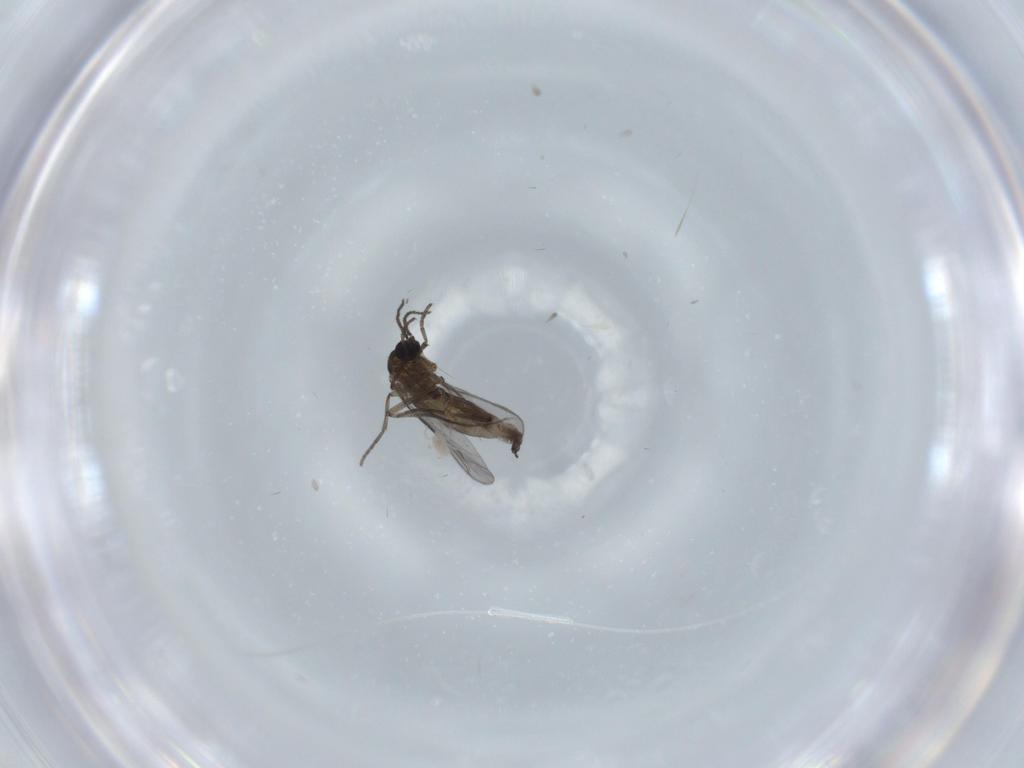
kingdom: Animalia
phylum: Arthropoda
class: Insecta
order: Diptera
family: Mycetophilidae
